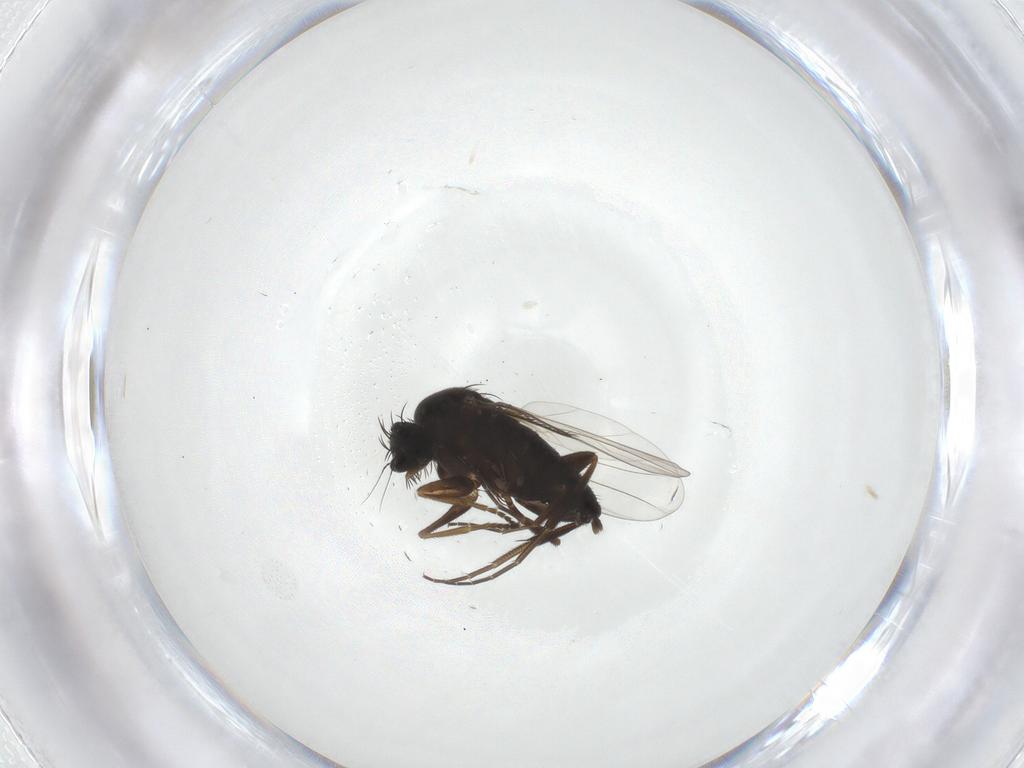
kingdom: Animalia
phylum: Arthropoda
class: Insecta
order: Diptera
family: Phoridae
